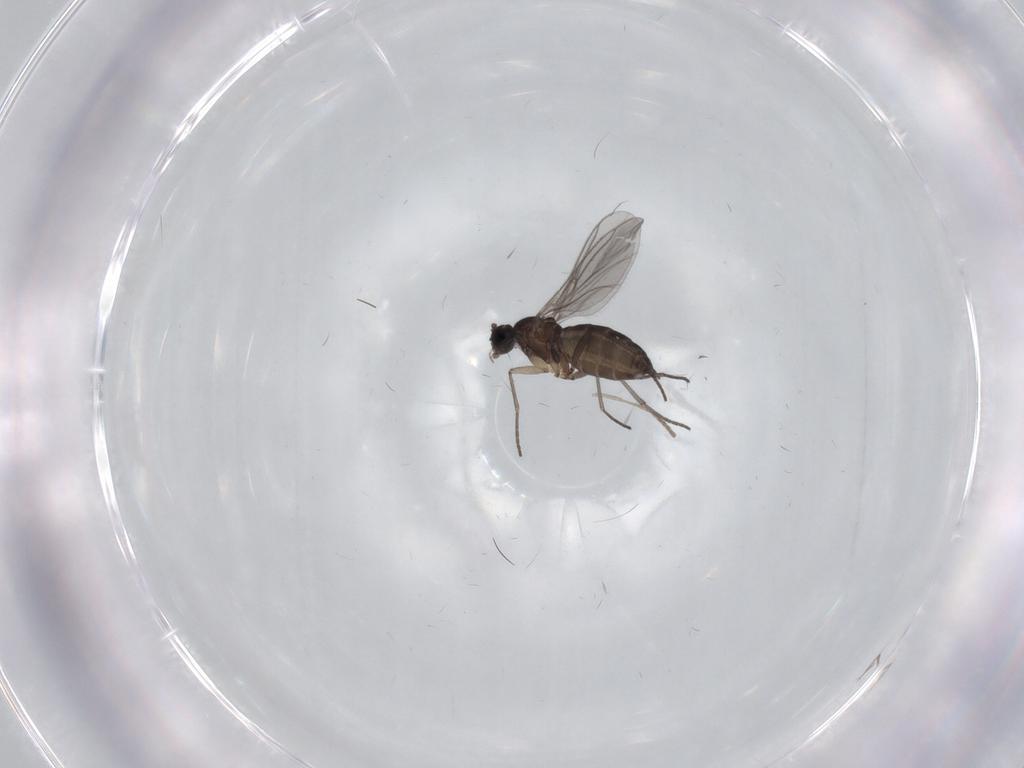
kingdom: Animalia
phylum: Arthropoda
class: Insecta
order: Diptera
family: Sciaridae
